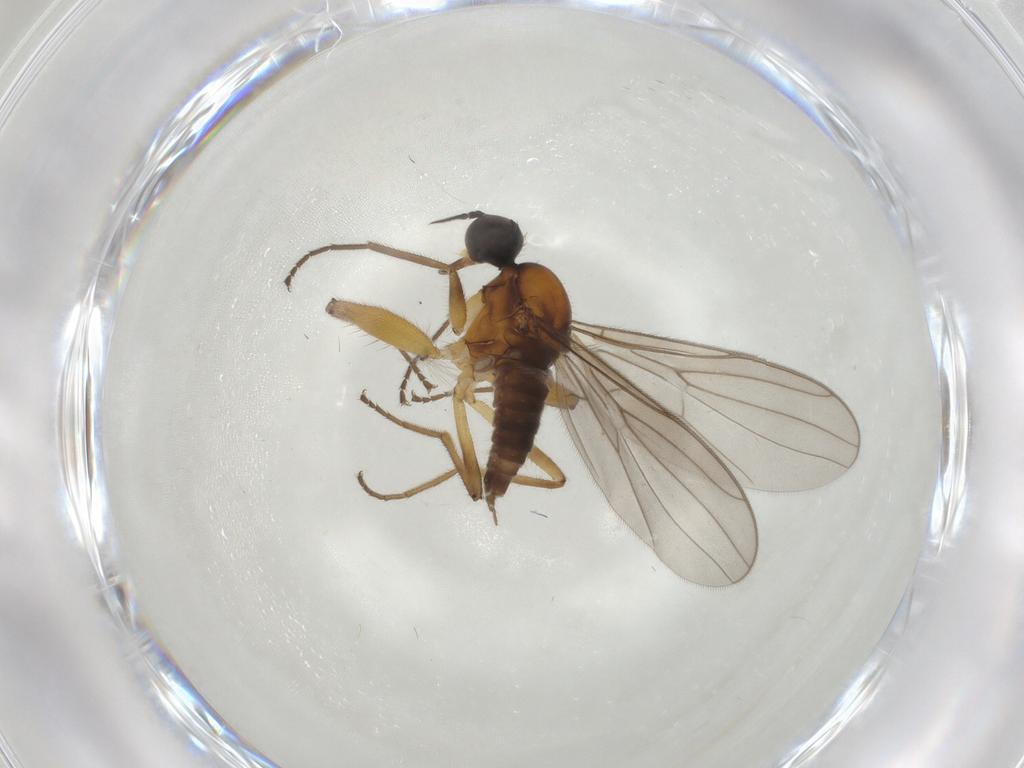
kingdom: Animalia
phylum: Arthropoda
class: Insecta
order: Diptera
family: Hybotidae
